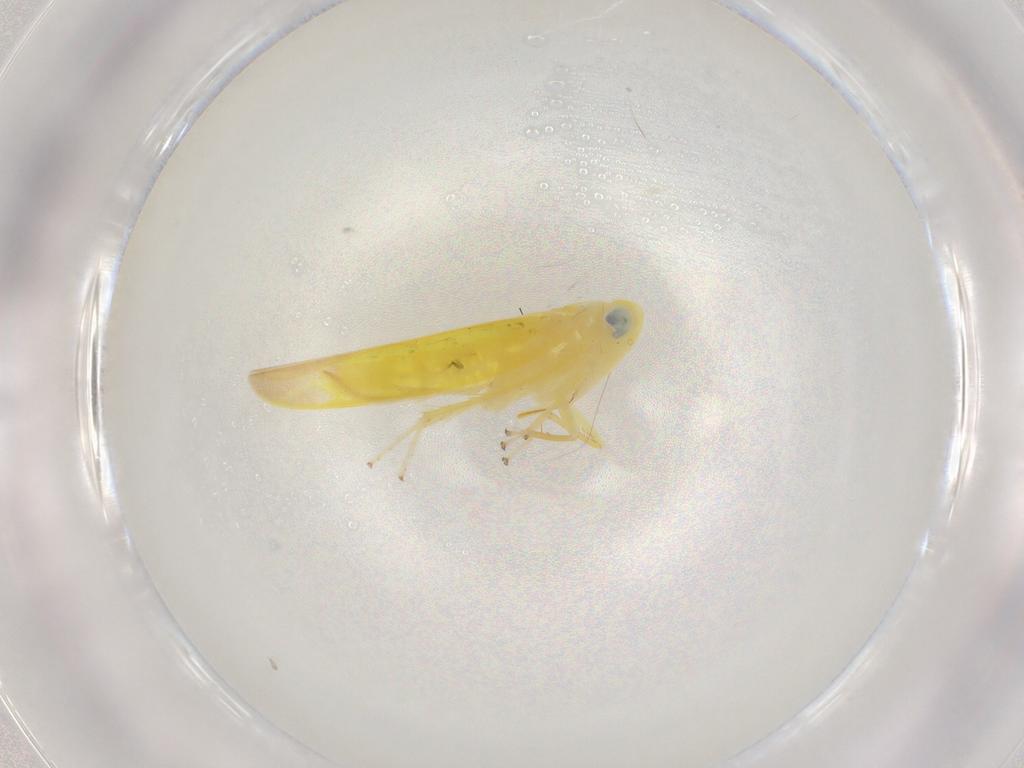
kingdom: Animalia
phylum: Arthropoda
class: Insecta
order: Hemiptera
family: Cicadellidae
